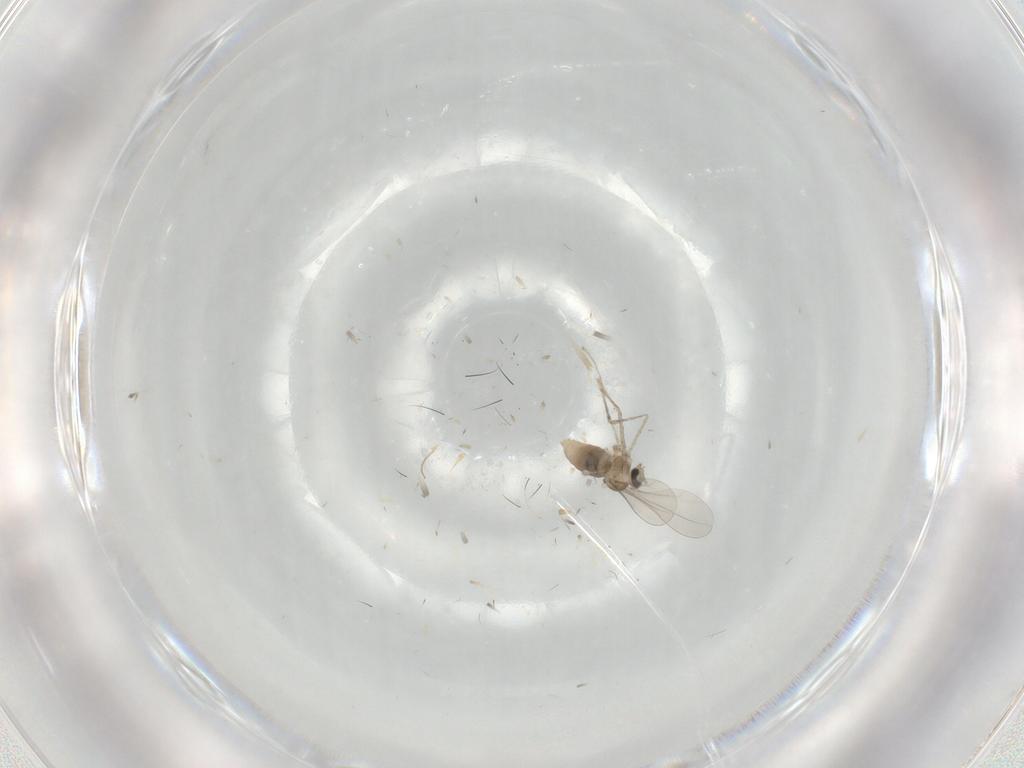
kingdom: Animalia
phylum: Arthropoda
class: Insecta
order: Diptera
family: Cecidomyiidae
